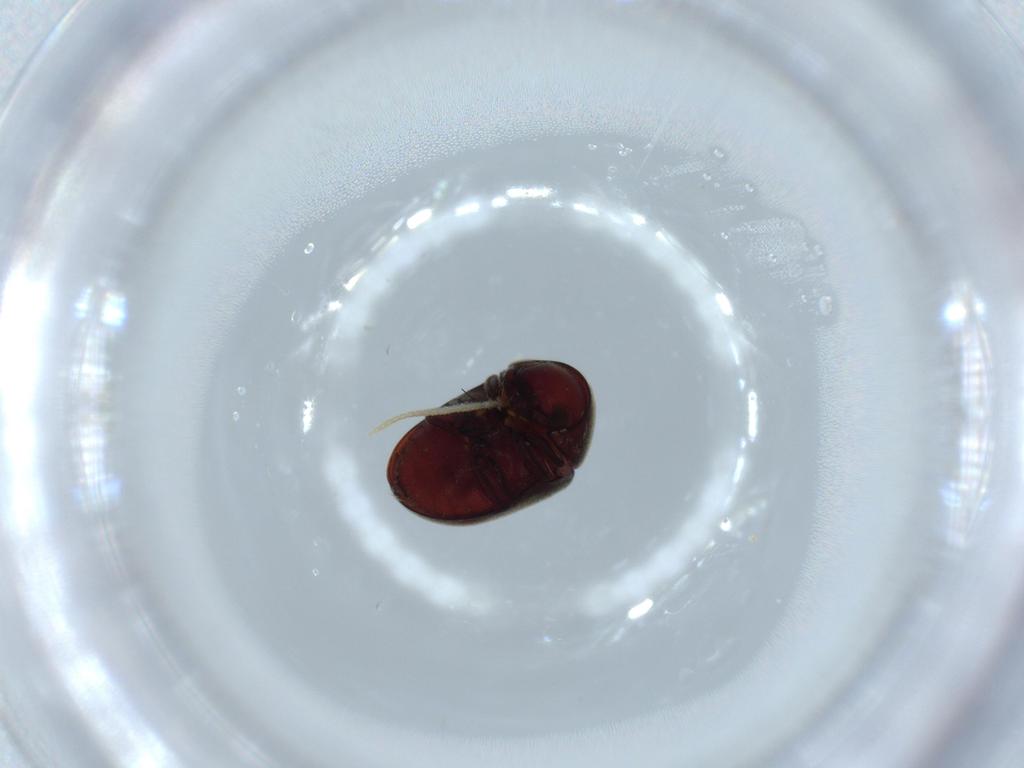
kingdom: Animalia
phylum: Arthropoda
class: Insecta
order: Coleoptera
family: Ptinidae
